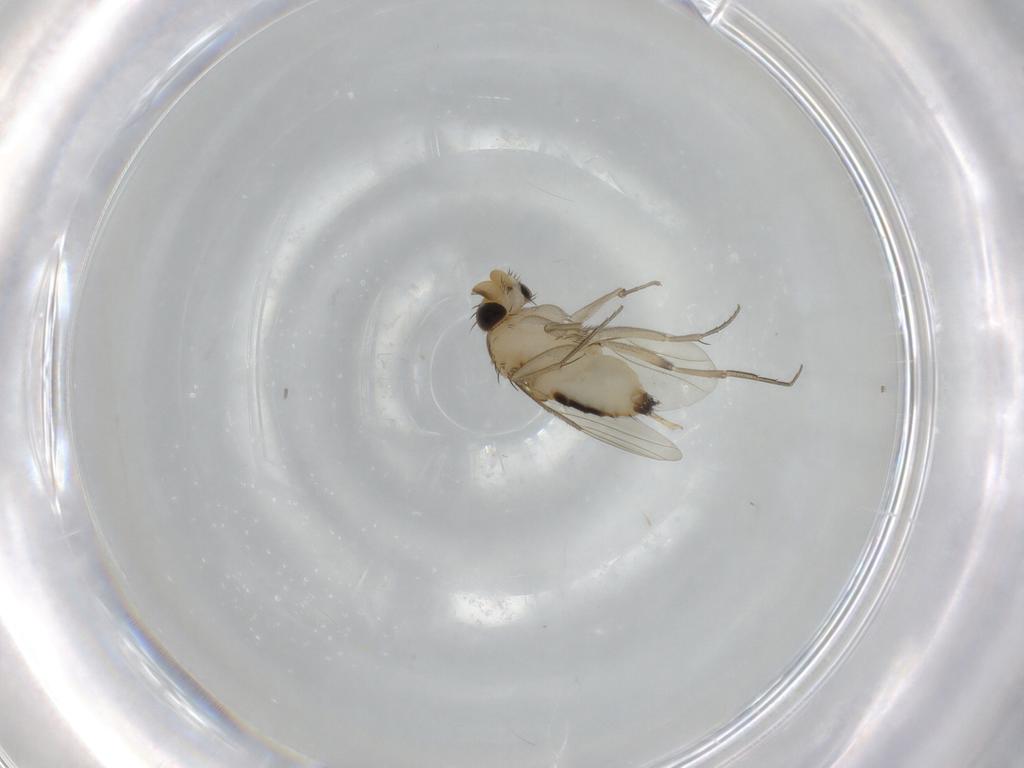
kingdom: Animalia
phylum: Arthropoda
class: Insecta
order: Diptera
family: Phoridae
